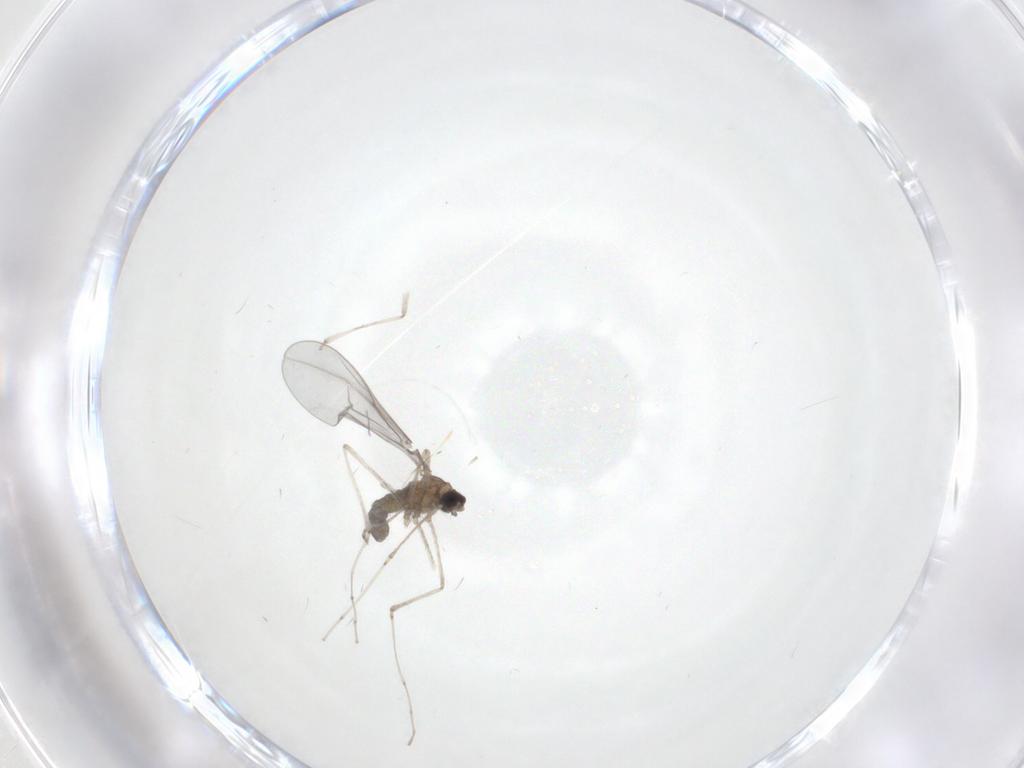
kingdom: Animalia
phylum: Arthropoda
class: Insecta
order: Diptera
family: Cecidomyiidae
